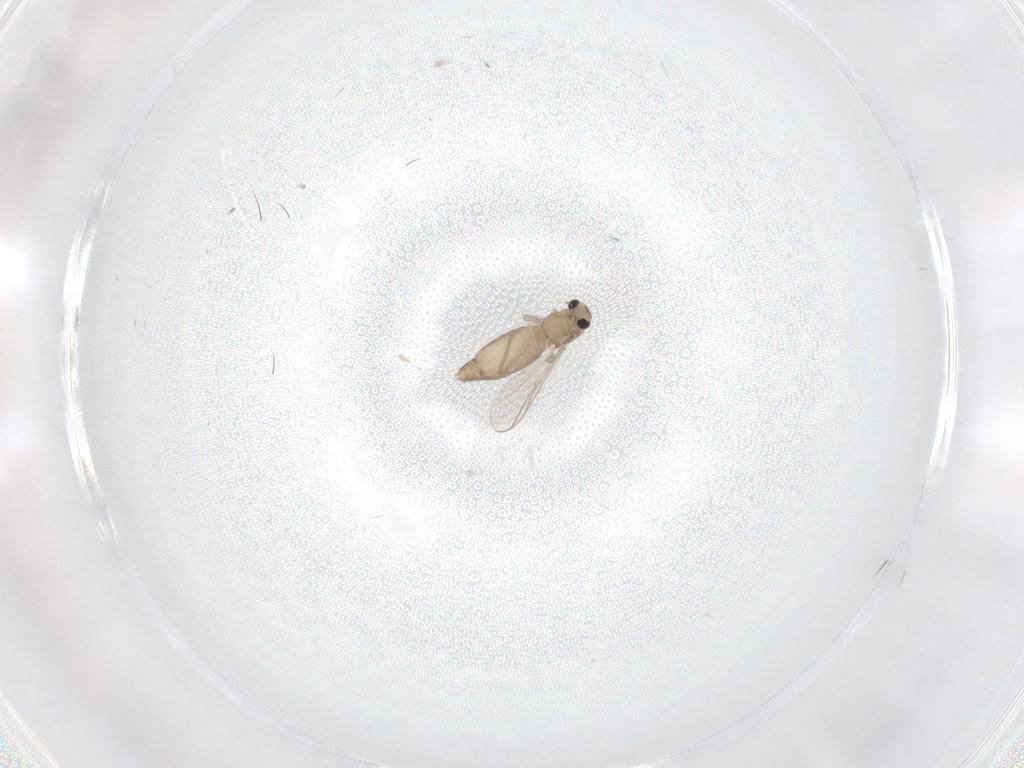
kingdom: Animalia
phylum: Arthropoda
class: Insecta
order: Diptera
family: Chironomidae
